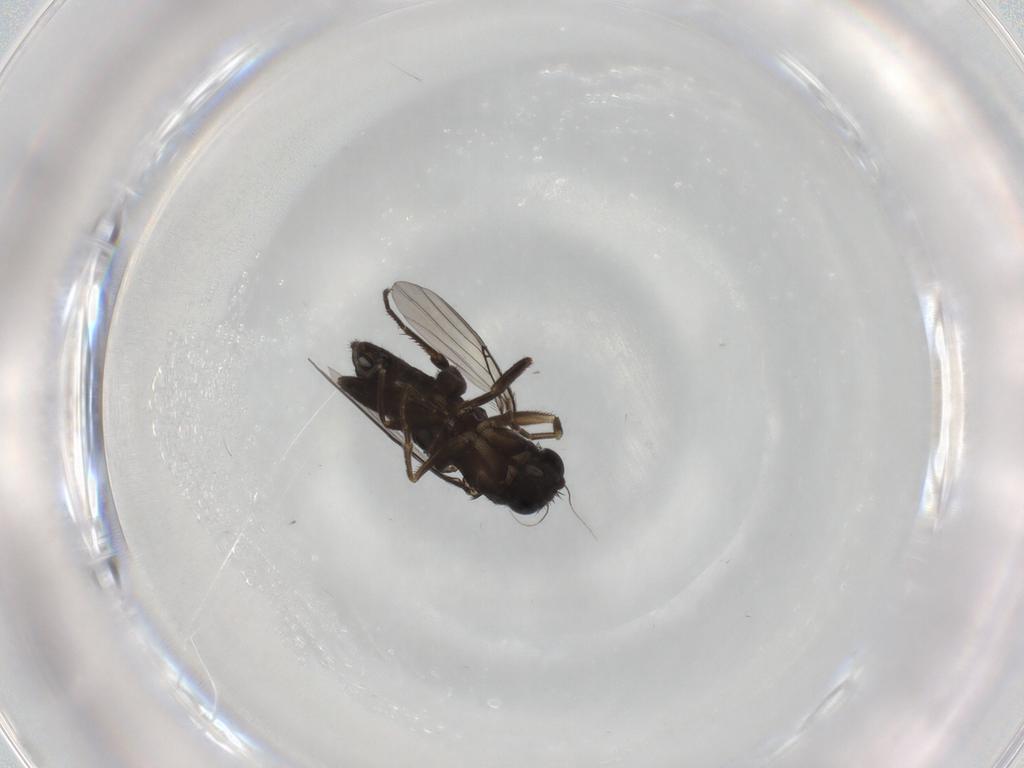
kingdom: Animalia
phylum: Arthropoda
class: Insecta
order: Diptera
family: Phoridae
